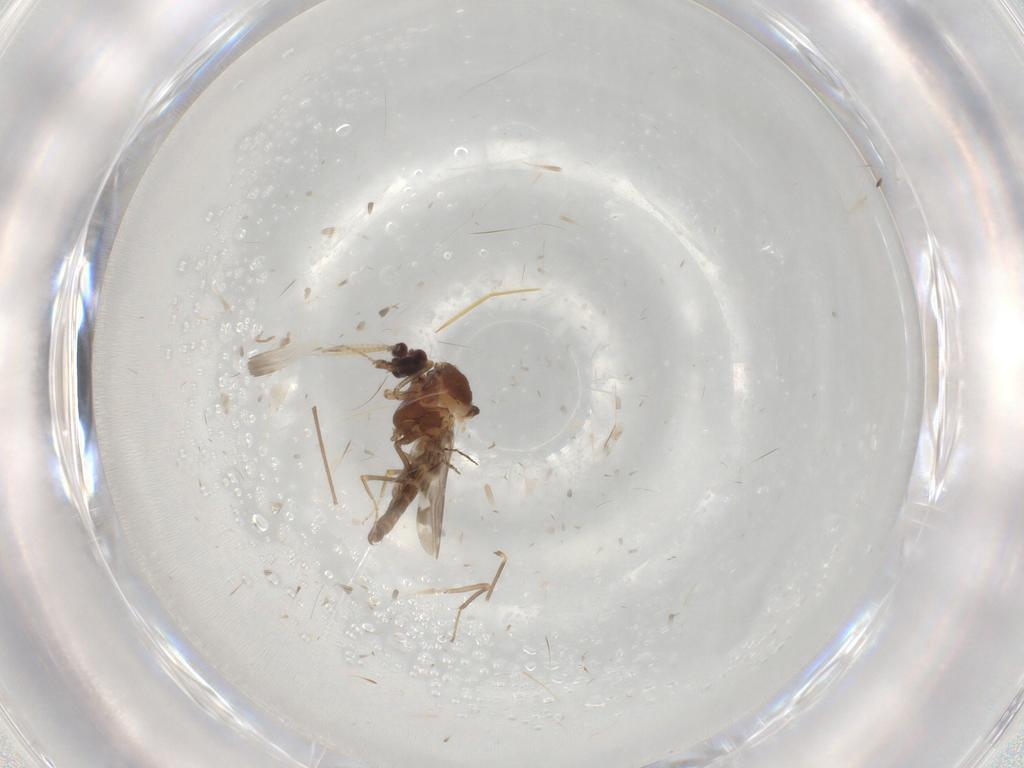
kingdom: Animalia
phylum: Arthropoda
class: Insecta
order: Diptera
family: Ceratopogonidae
